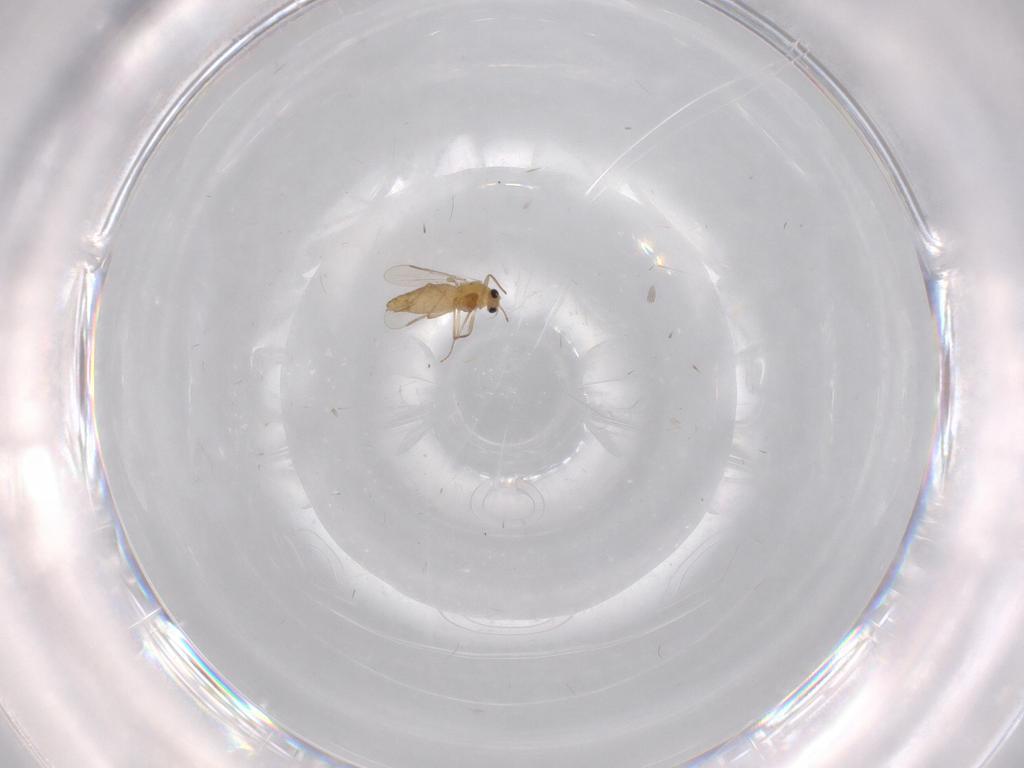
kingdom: Animalia
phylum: Arthropoda
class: Insecta
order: Diptera
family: Chironomidae
